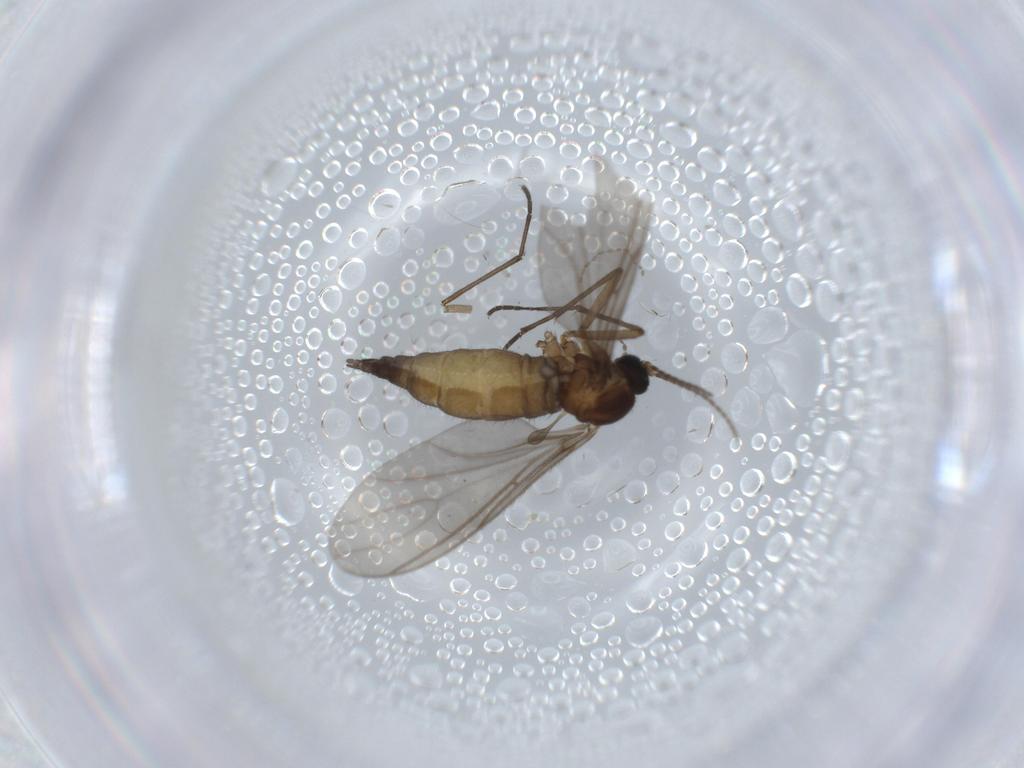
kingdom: Animalia
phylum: Arthropoda
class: Insecta
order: Diptera
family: Sciaridae
